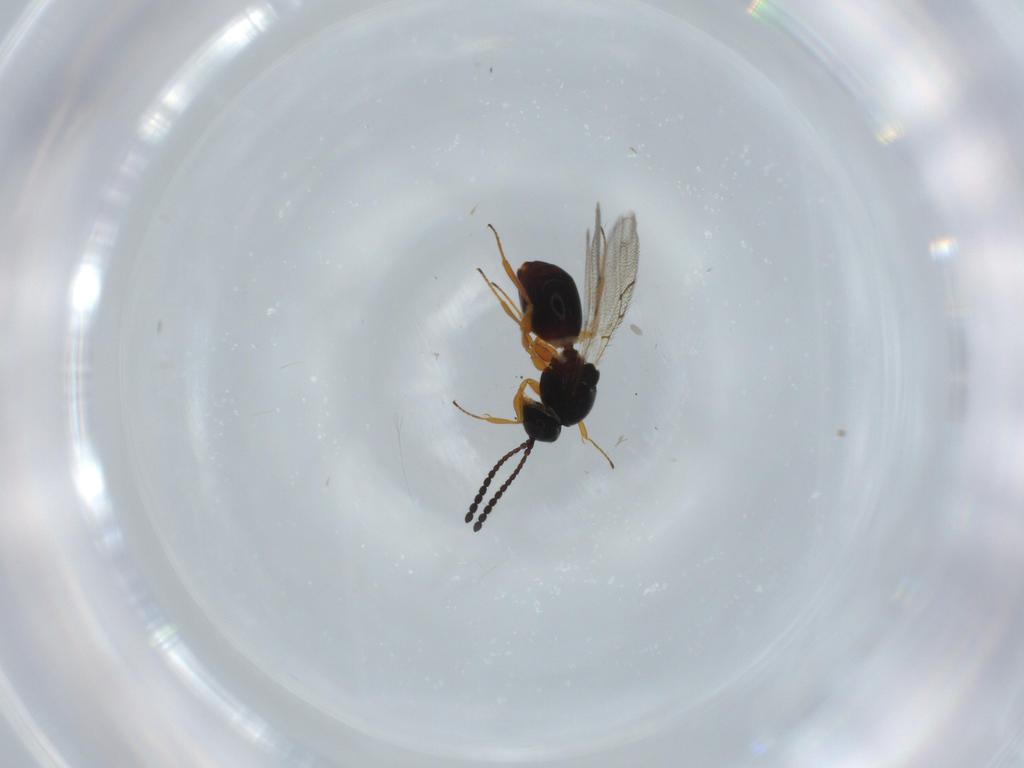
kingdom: Animalia
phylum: Arthropoda
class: Insecta
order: Hymenoptera
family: Figitidae
